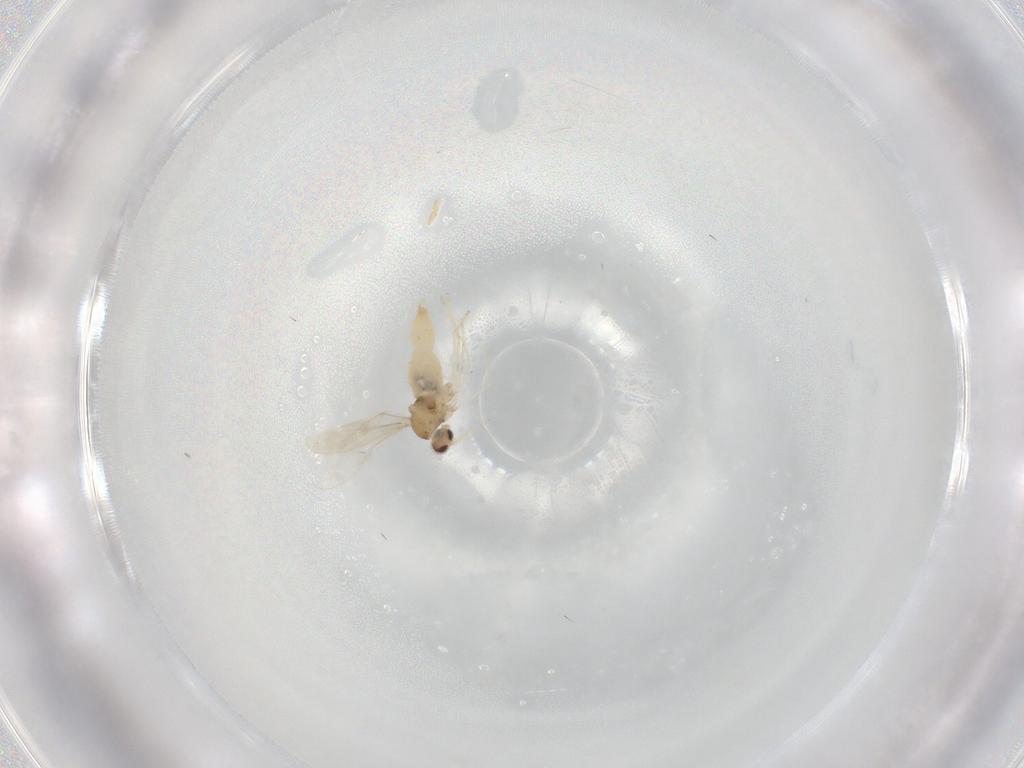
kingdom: Animalia
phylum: Arthropoda
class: Insecta
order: Diptera
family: Cecidomyiidae
